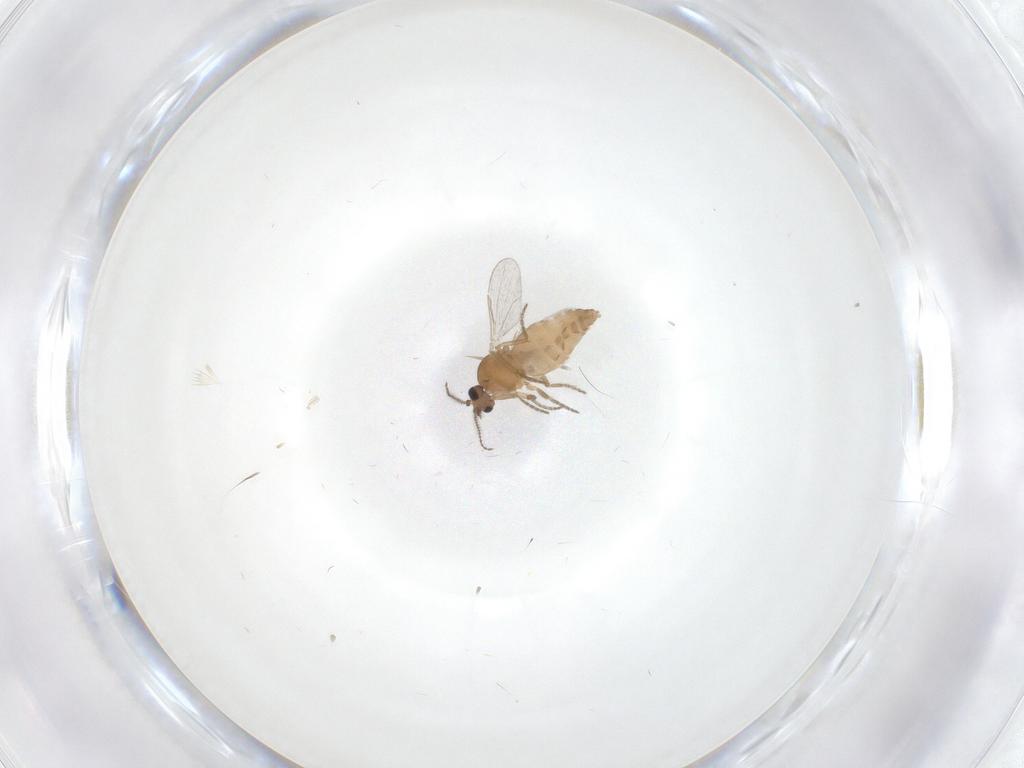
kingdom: Animalia
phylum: Arthropoda
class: Insecta
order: Diptera
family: Ceratopogonidae
